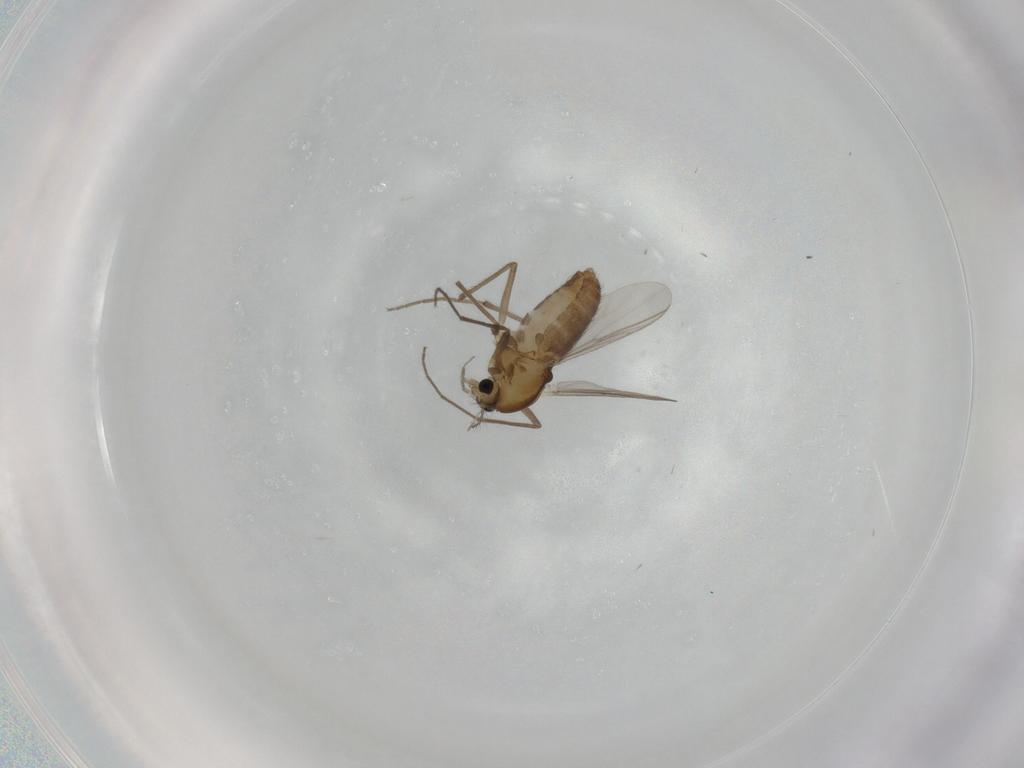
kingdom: Animalia
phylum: Arthropoda
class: Insecta
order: Diptera
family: Chironomidae
